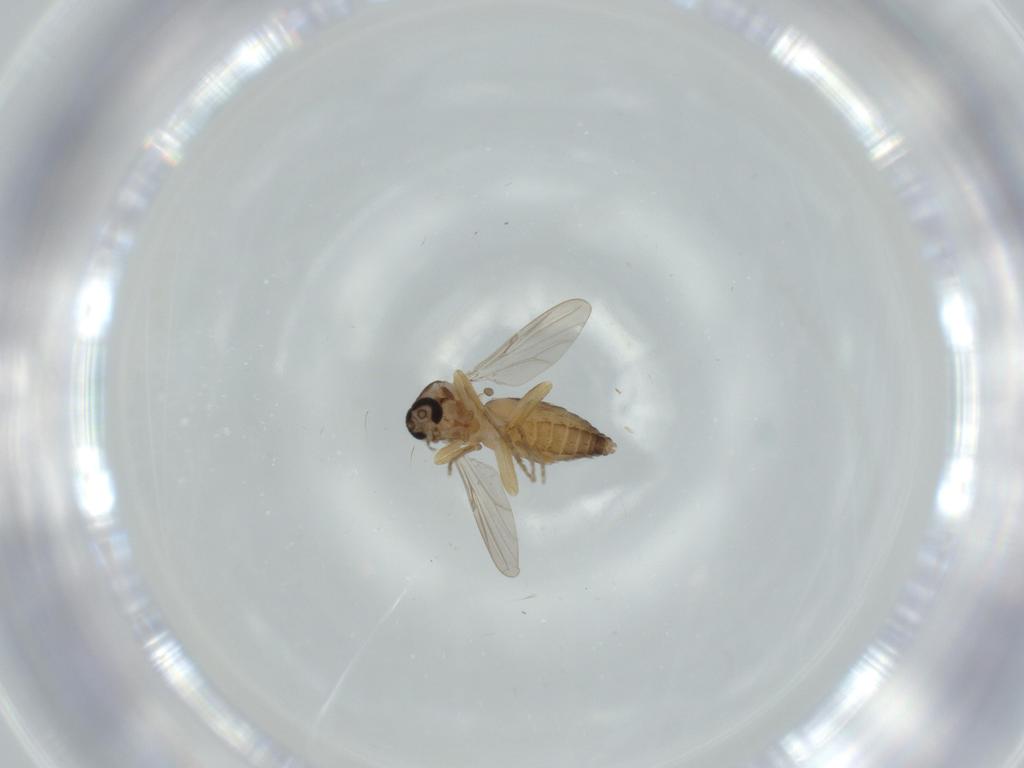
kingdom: Animalia
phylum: Arthropoda
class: Insecta
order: Diptera
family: Ceratopogonidae
